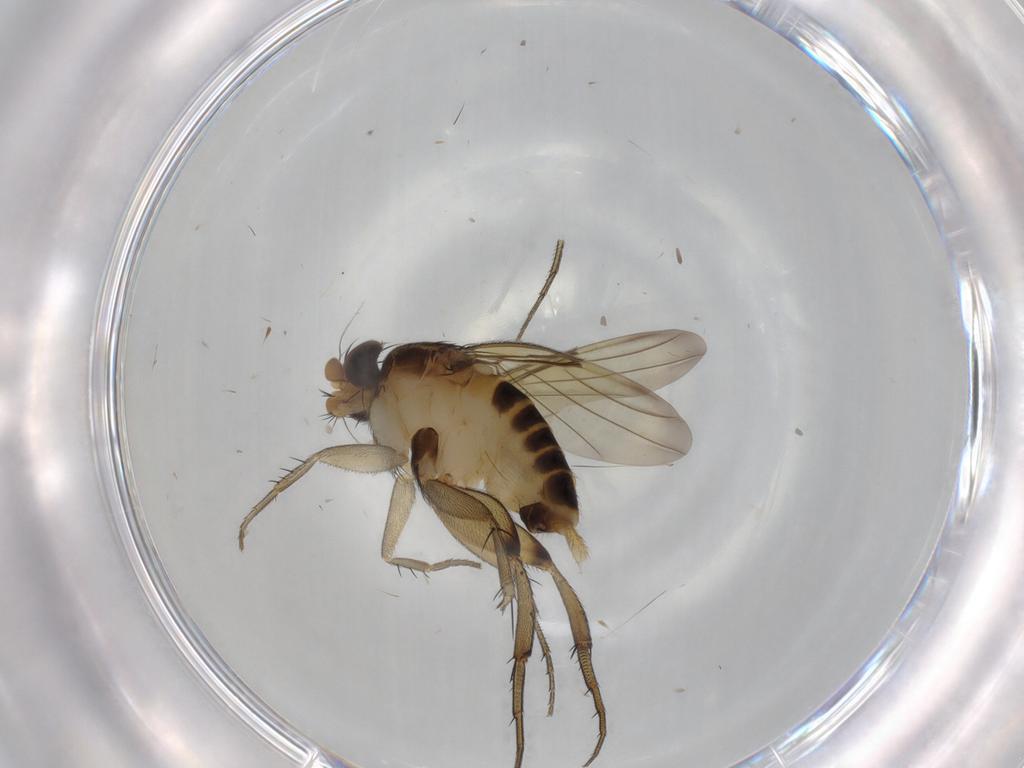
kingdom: Animalia
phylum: Arthropoda
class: Insecta
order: Diptera
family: Phoridae
